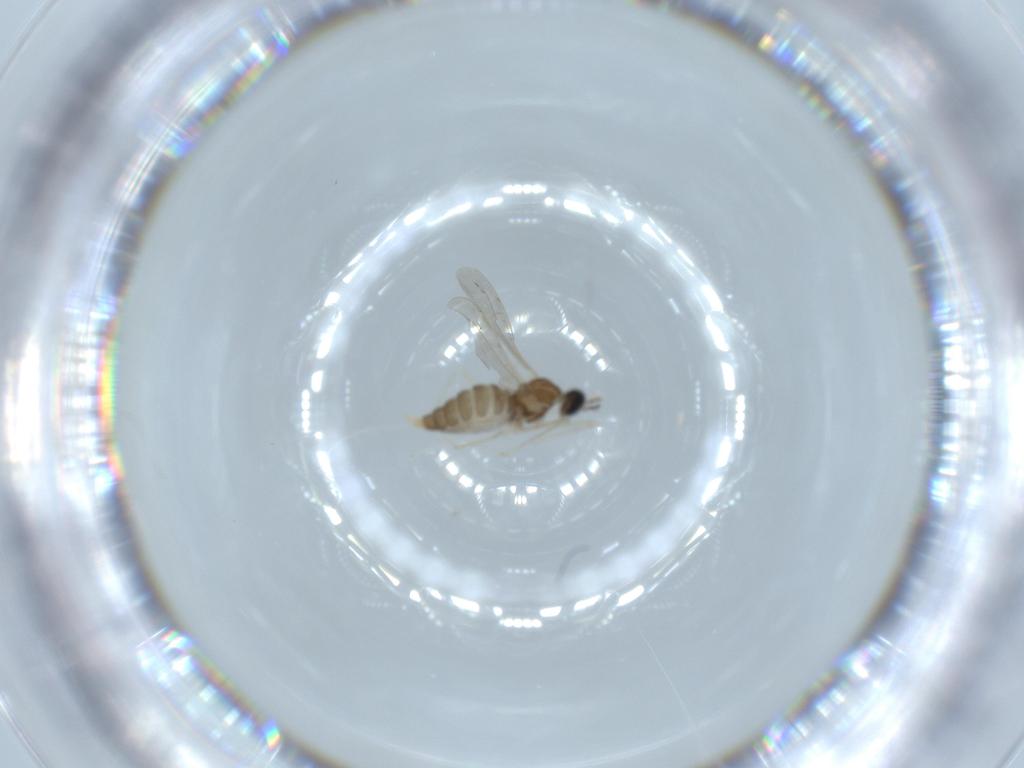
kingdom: Animalia
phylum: Arthropoda
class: Insecta
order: Diptera
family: Cecidomyiidae
